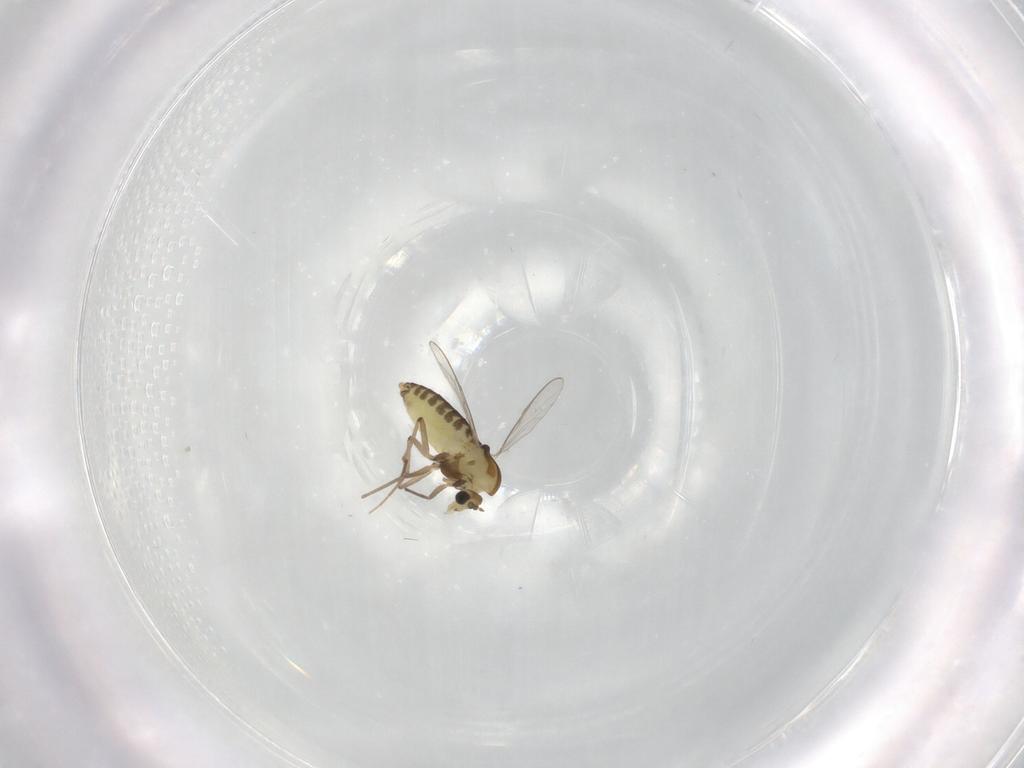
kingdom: Animalia
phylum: Arthropoda
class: Insecta
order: Diptera
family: Chironomidae
